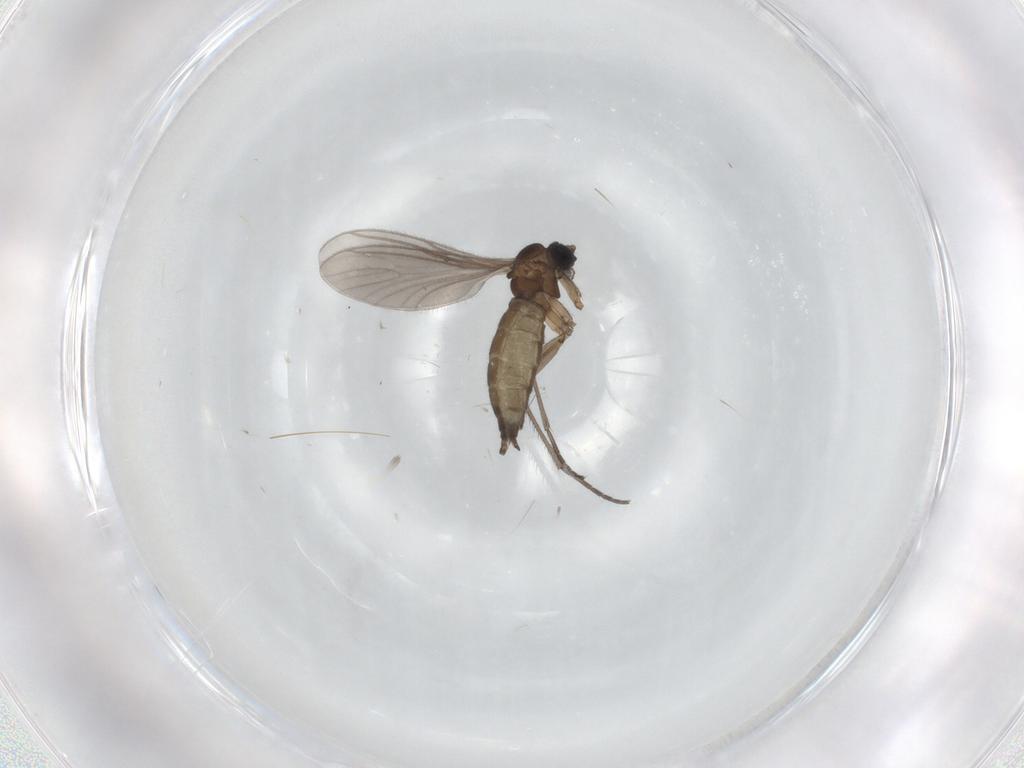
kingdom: Animalia
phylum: Arthropoda
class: Insecta
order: Diptera
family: Sciaridae
